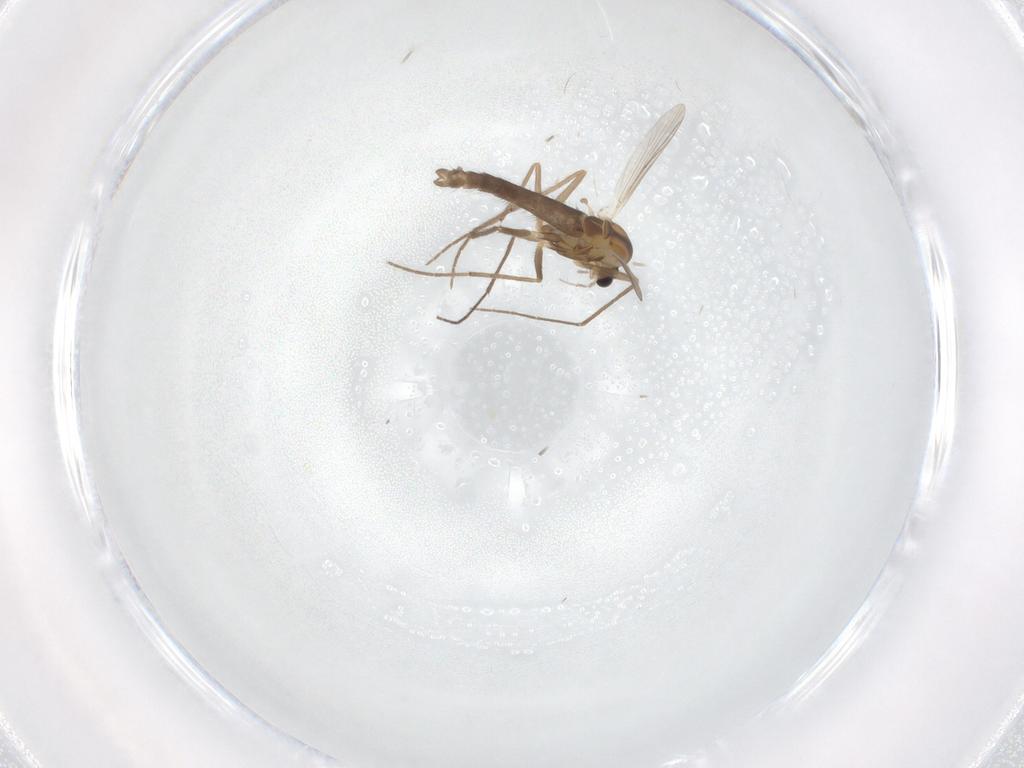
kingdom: Animalia
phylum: Arthropoda
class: Insecta
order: Diptera
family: Chironomidae
